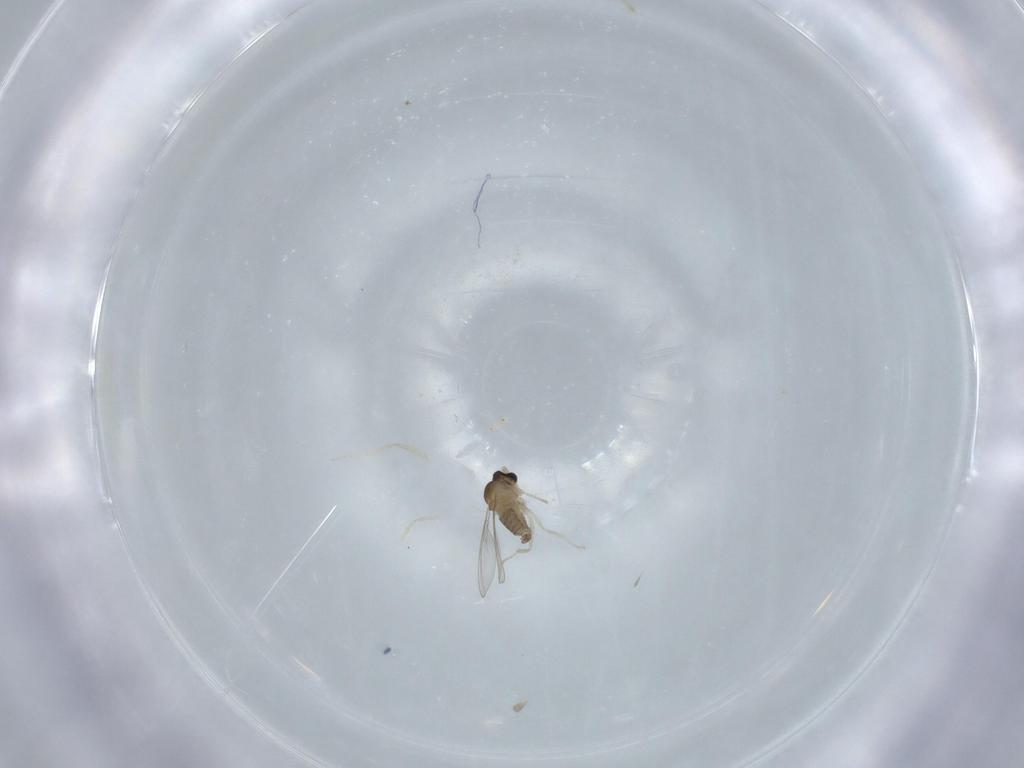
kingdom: Animalia
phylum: Arthropoda
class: Insecta
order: Diptera
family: Cecidomyiidae
